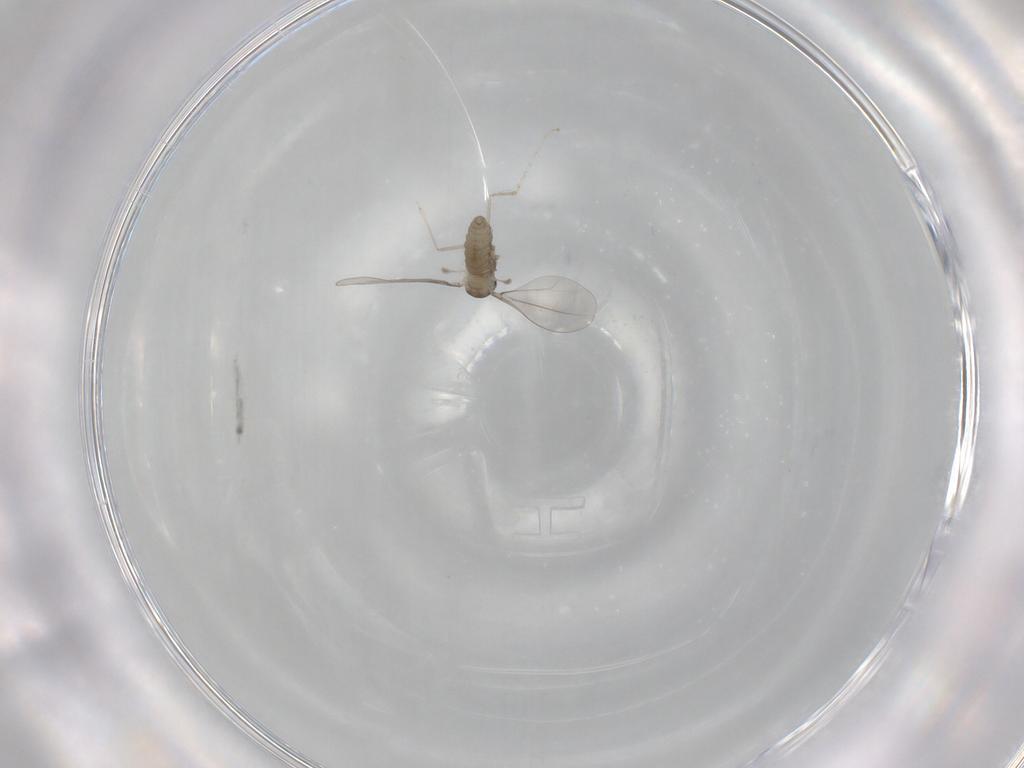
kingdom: Animalia
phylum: Arthropoda
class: Insecta
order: Diptera
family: Cecidomyiidae
